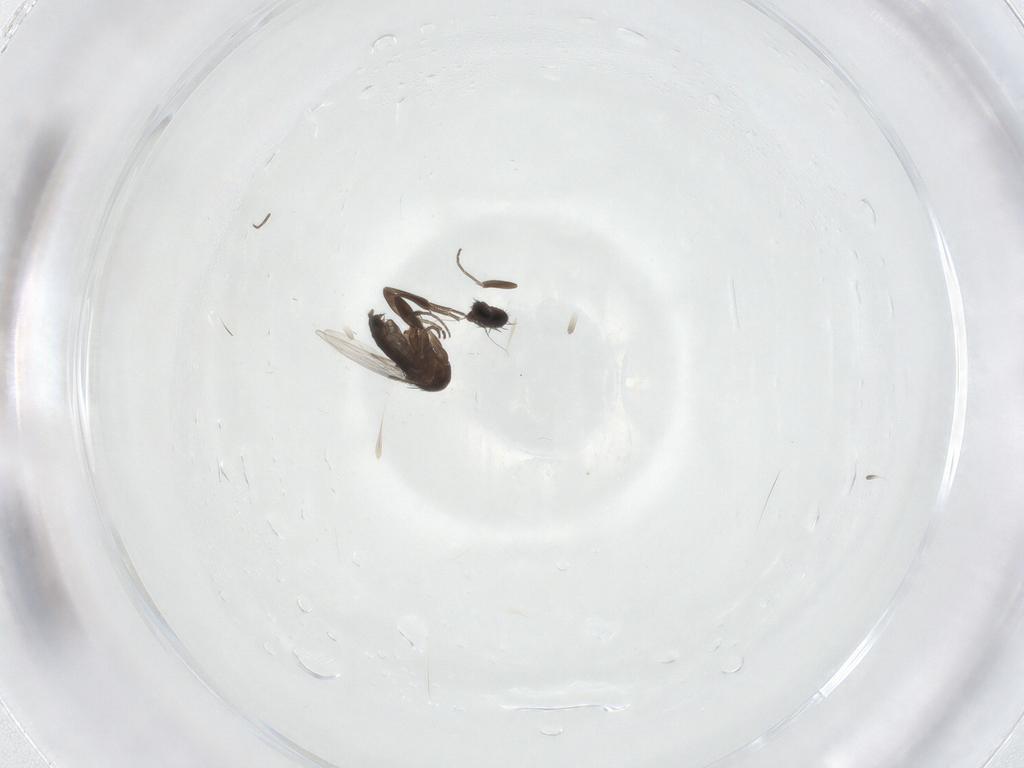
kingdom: Animalia
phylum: Arthropoda
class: Insecta
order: Diptera
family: Phoridae
